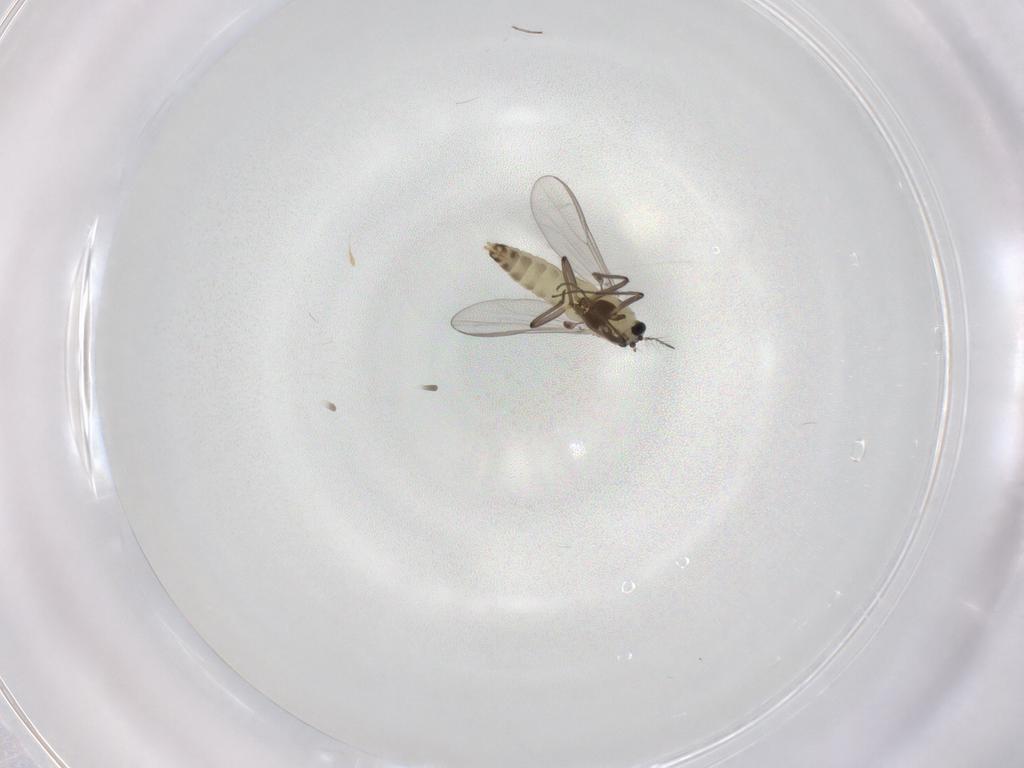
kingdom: Animalia
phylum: Arthropoda
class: Insecta
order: Diptera
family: Chironomidae
